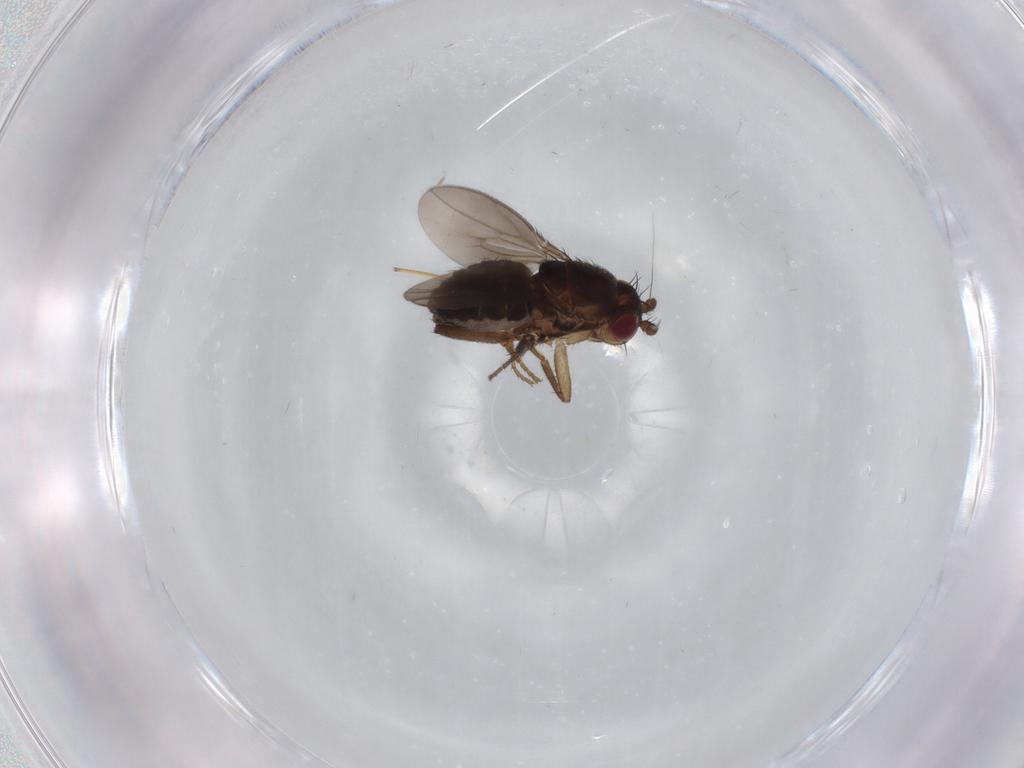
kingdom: Animalia
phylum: Arthropoda
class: Insecta
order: Diptera
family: Sphaeroceridae
